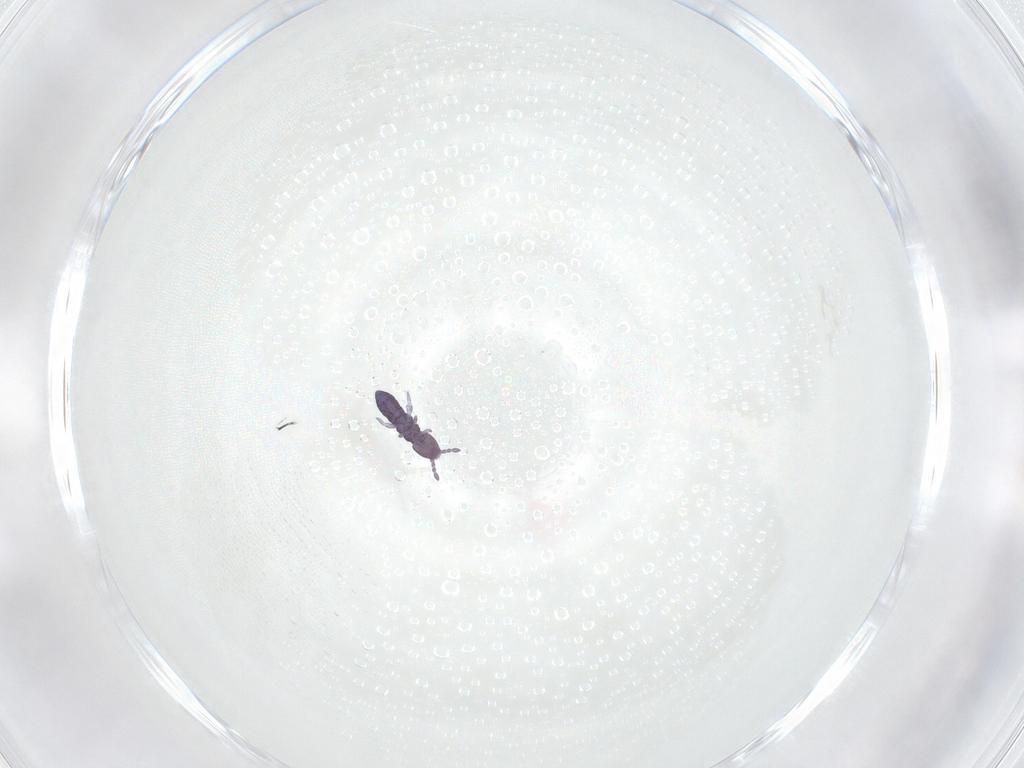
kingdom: Animalia
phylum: Arthropoda
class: Collembola
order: Entomobryomorpha
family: Isotomidae
